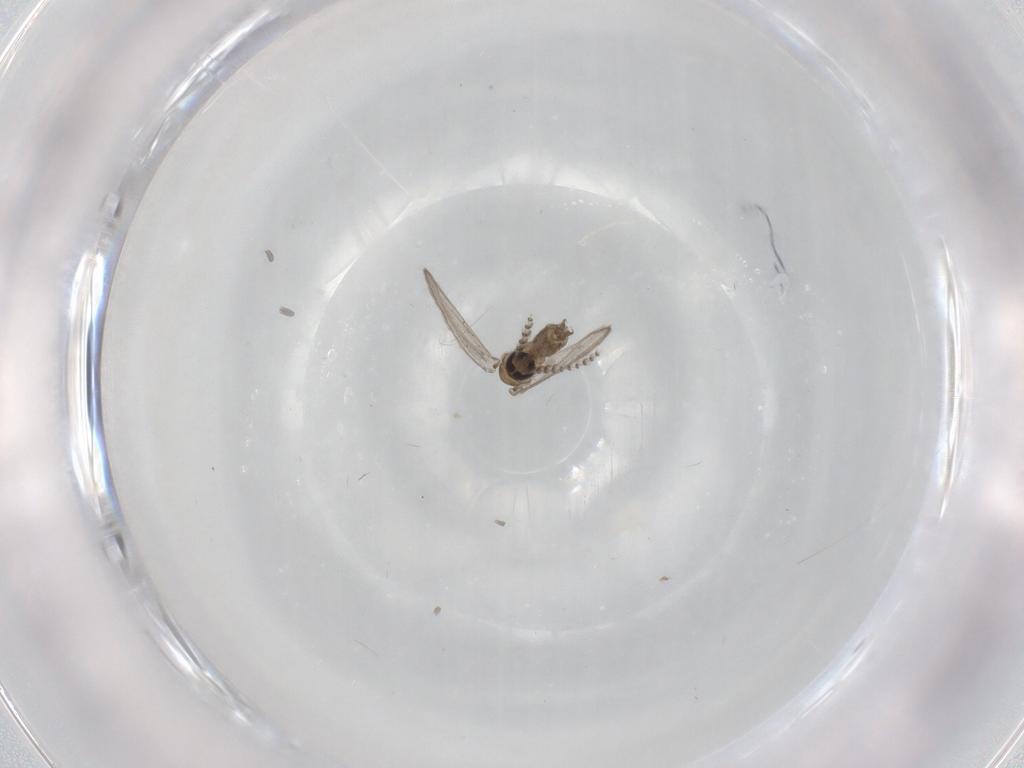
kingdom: Animalia
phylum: Arthropoda
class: Insecta
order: Diptera
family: Psychodidae
